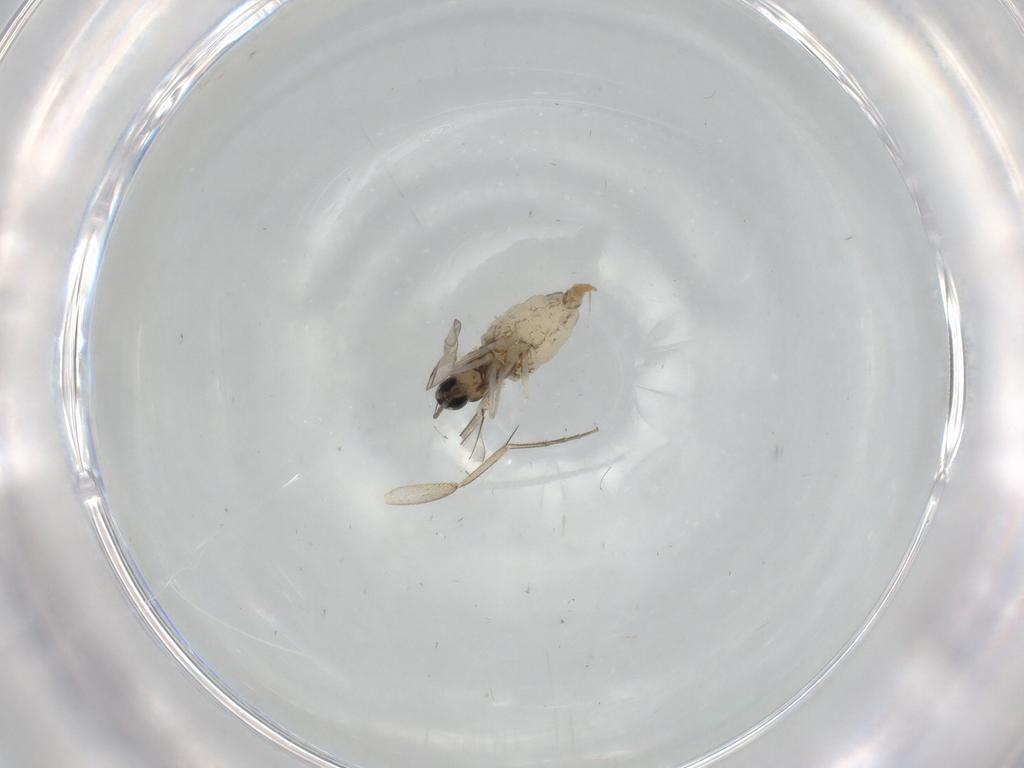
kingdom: Animalia
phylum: Arthropoda
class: Insecta
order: Diptera
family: Cecidomyiidae
